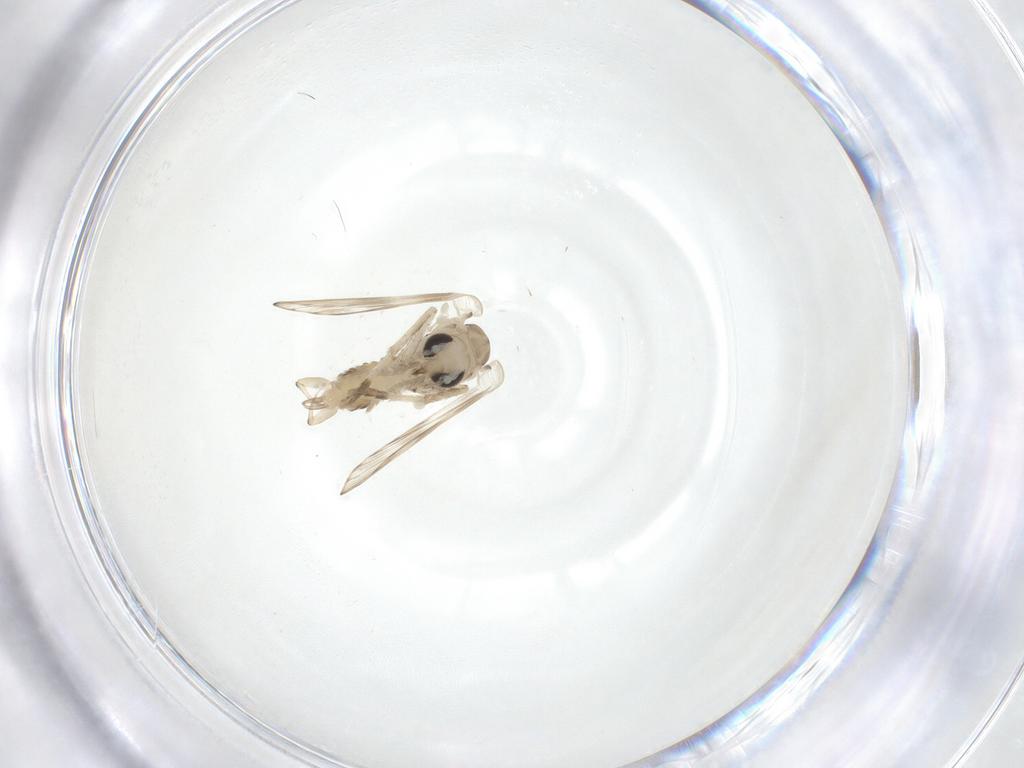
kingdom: Animalia
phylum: Arthropoda
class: Insecta
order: Diptera
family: Psychodidae
